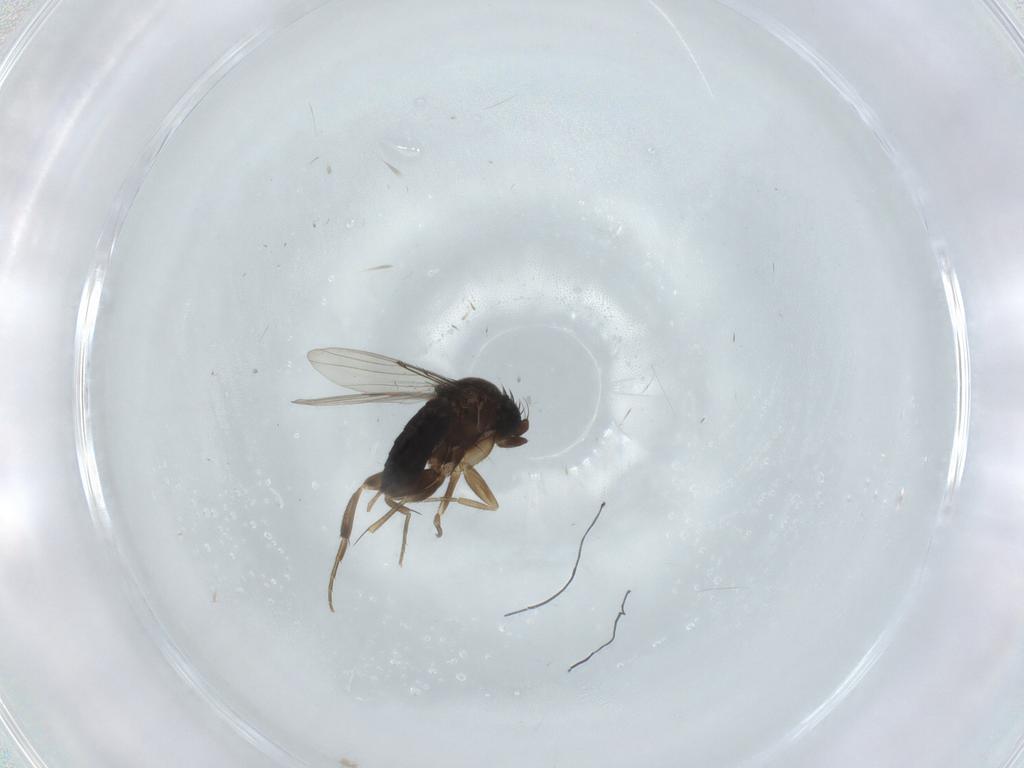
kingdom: Animalia
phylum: Arthropoda
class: Insecta
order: Diptera
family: Phoridae
